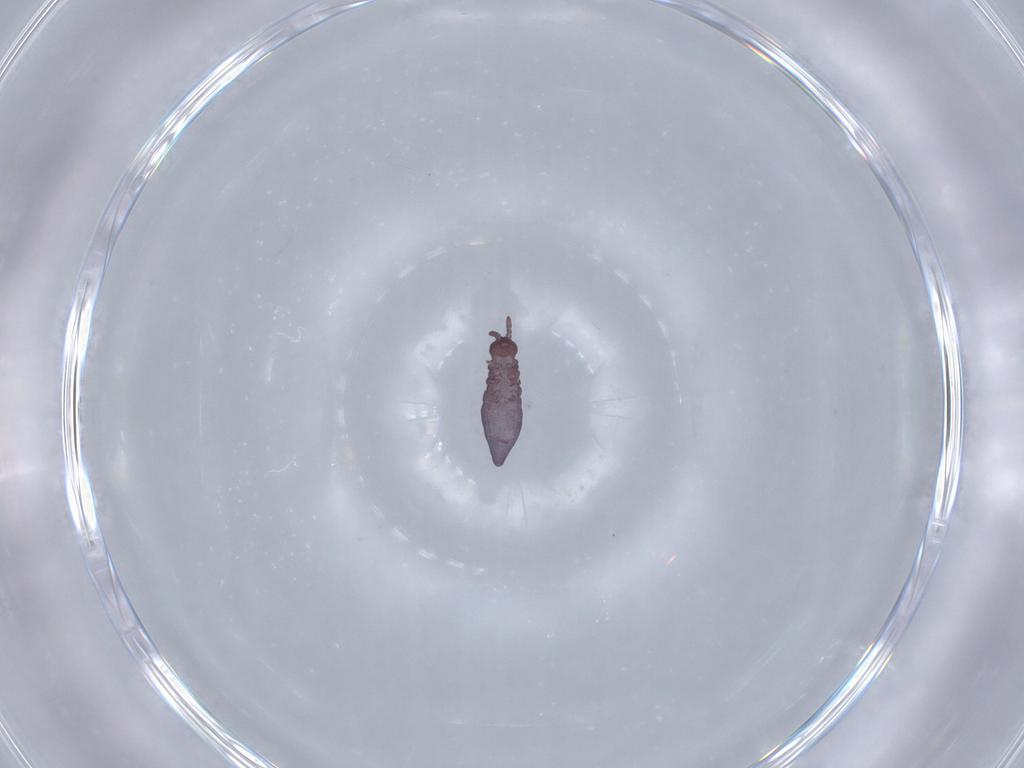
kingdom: Animalia
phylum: Arthropoda
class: Collembola
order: Poduromorpha
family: Hypogastruridae
